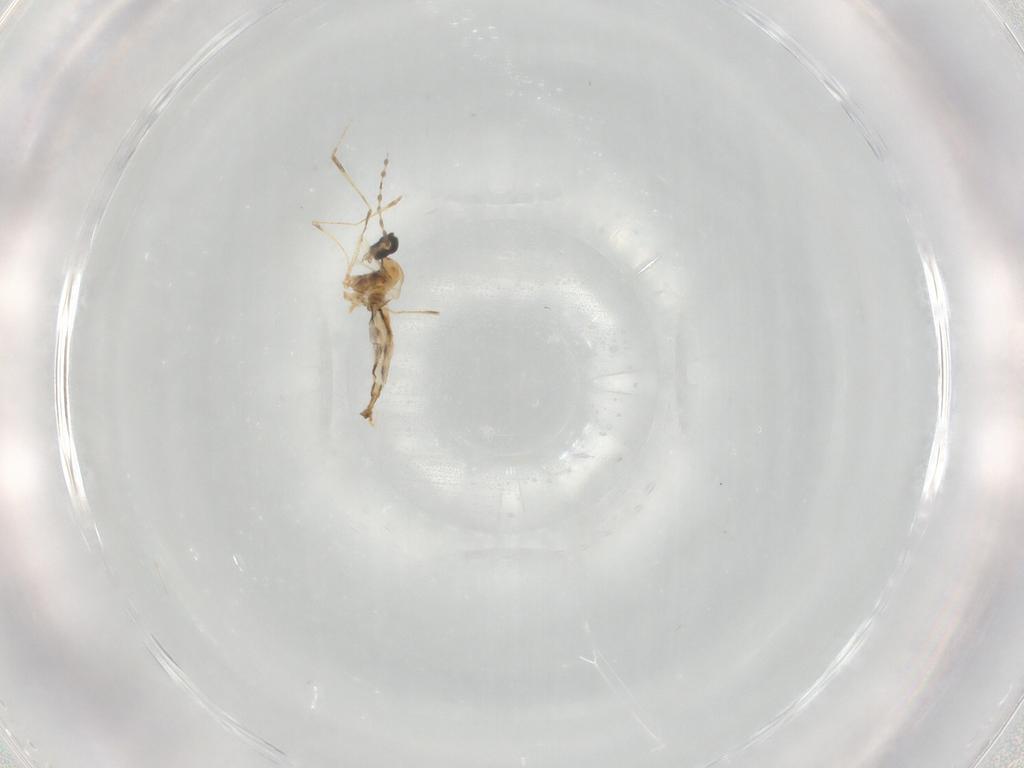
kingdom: Animalia
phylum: Arthropoda
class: Insecta
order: Diptera
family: Cecidomyiidae
